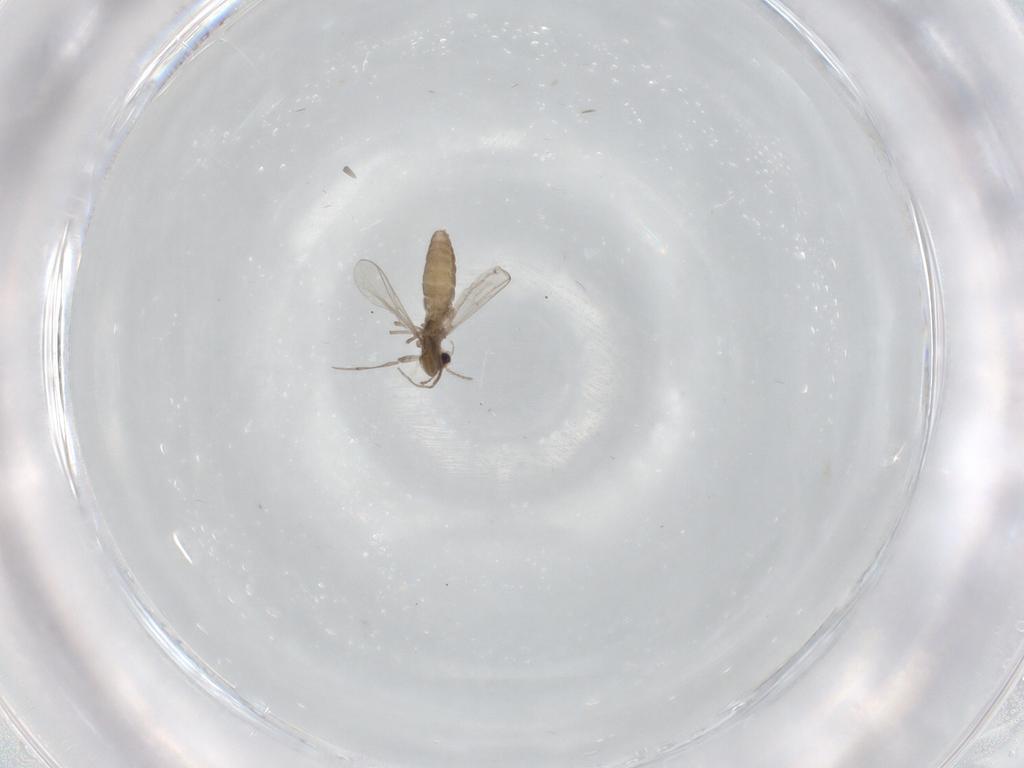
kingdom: Animalia
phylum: Arthropoda
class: Insecta
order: Diptera
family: Chironomidae
